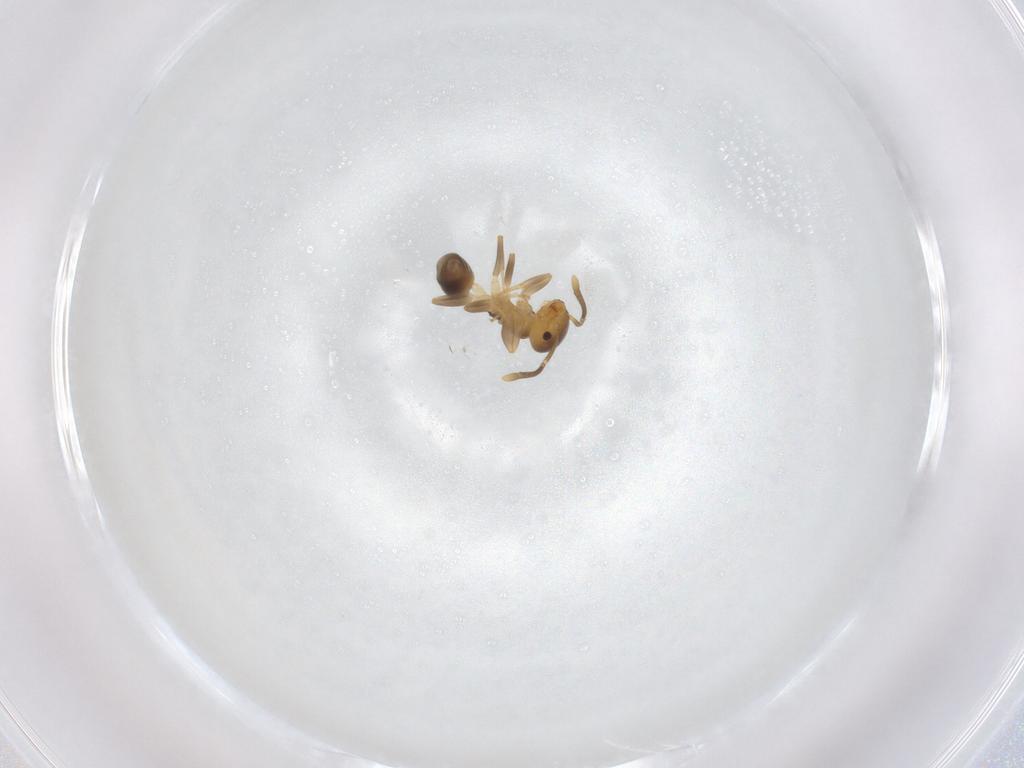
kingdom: Animalia
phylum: Arthropoda
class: Insecta
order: Hymenoptera
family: Formicidae
